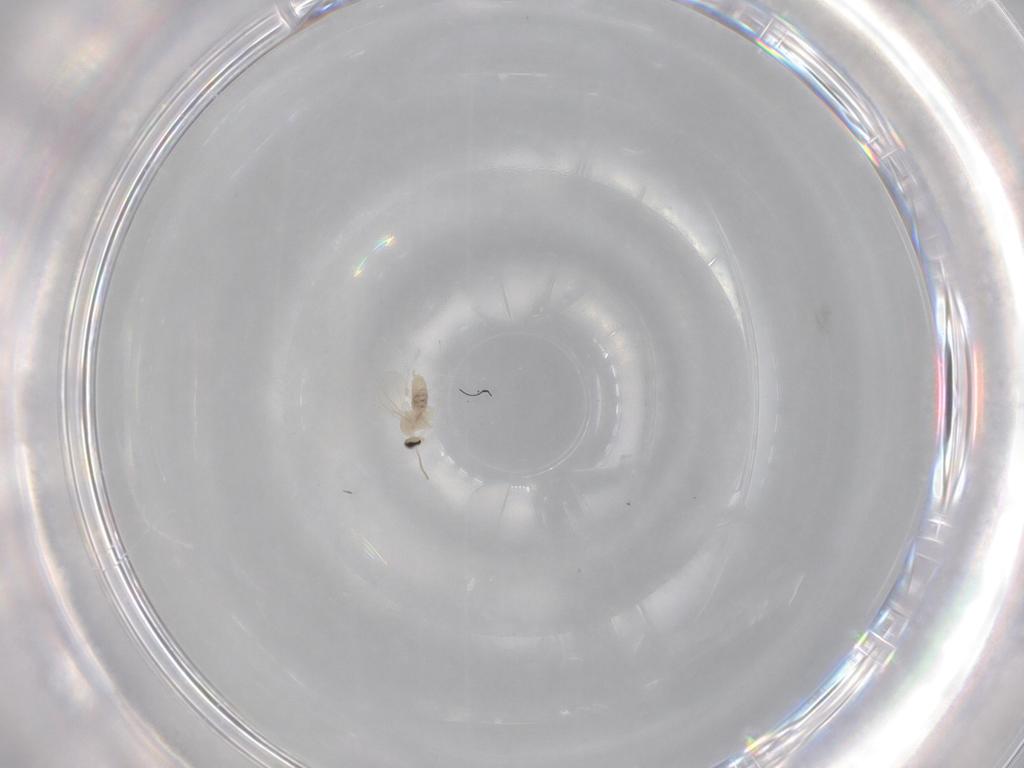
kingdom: Animalia
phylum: Arthropoda
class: Insecta
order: Diptera
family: Cecidomyiidae
